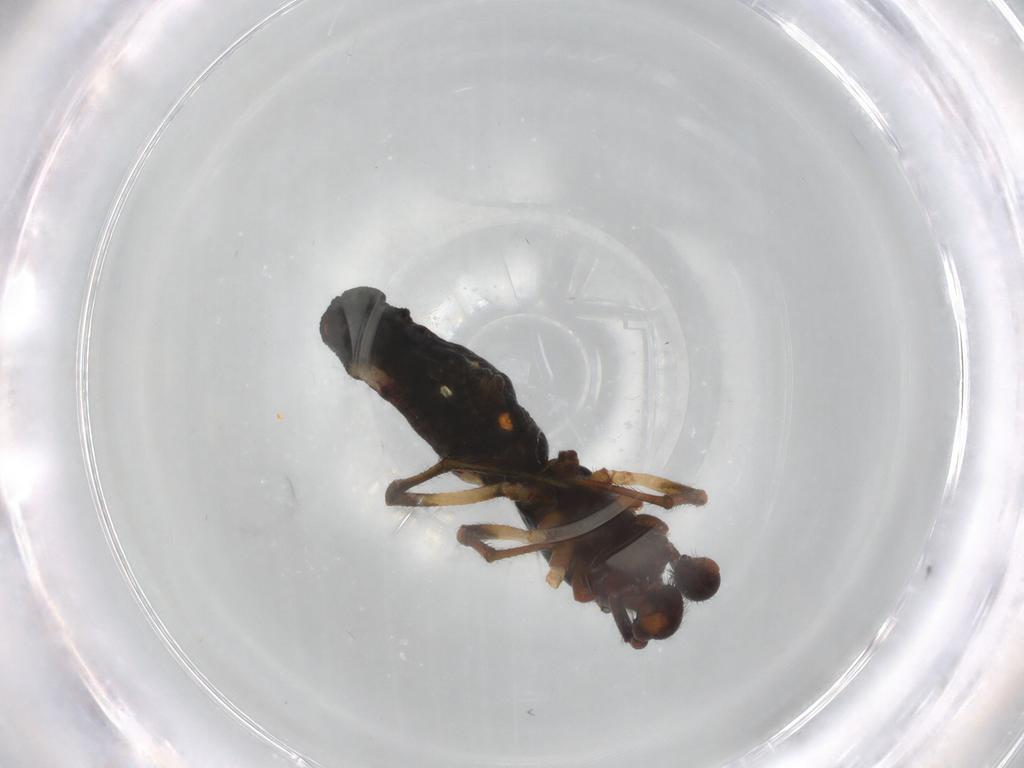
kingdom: Animalia
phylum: Arthropoda
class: Arachnida
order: Araneae
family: Theridiidae
